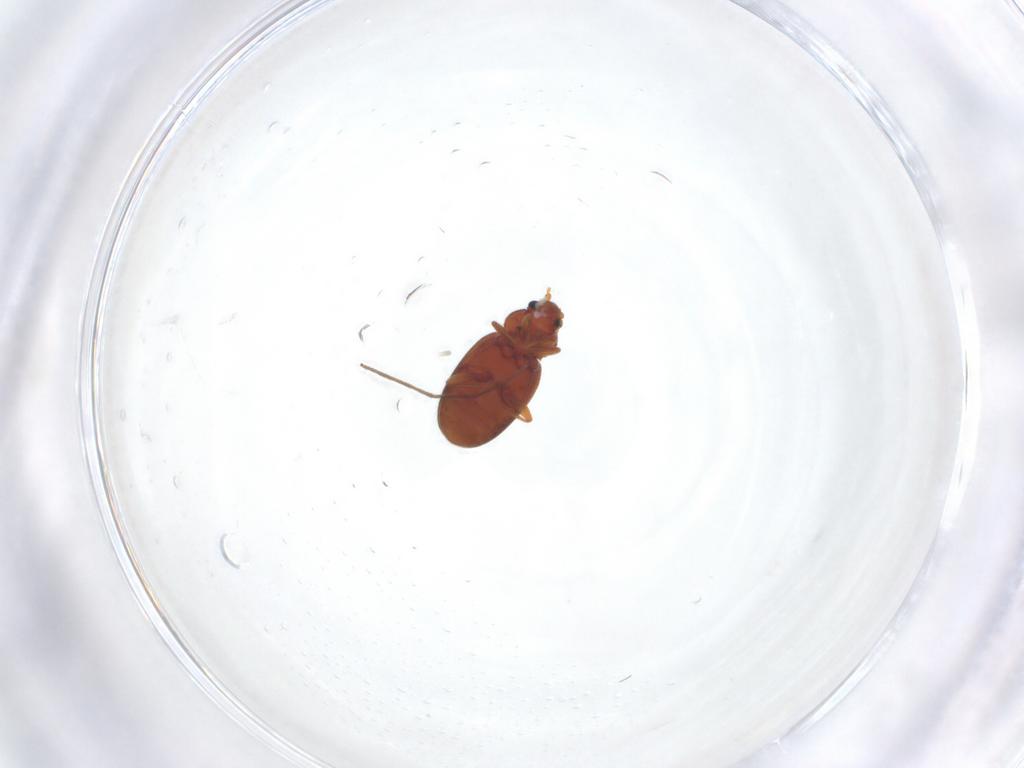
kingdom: Animalia
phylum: Arthropoda
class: Insecta
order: Coleoptera
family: Latridiidae
